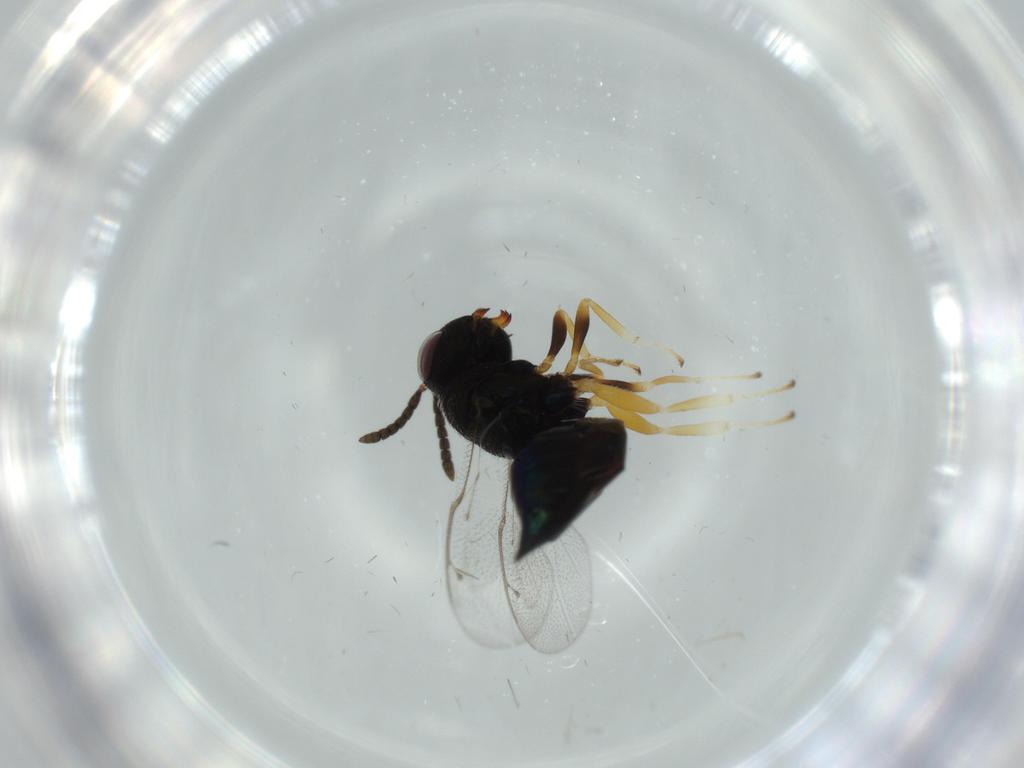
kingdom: Animalia
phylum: Arthropoda
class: Insecta
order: Hymenoptera
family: Pteromalidae
